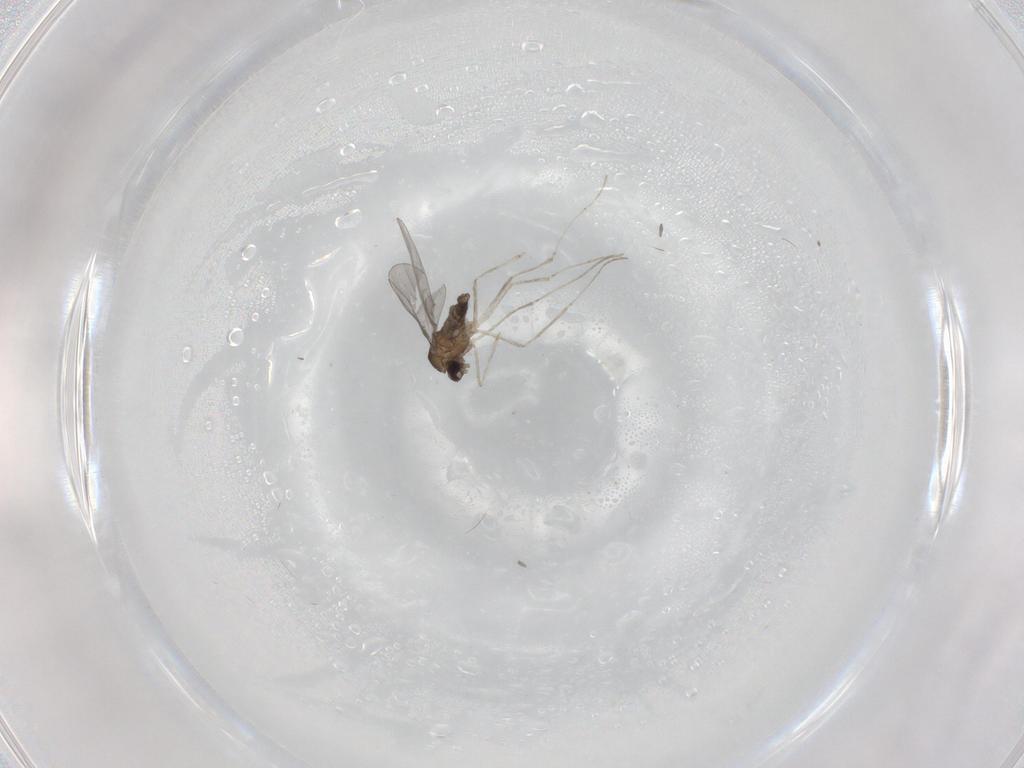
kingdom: Animalia
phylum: Arthropoda
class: Insecta
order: Diptera
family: Cecidomyiidae
